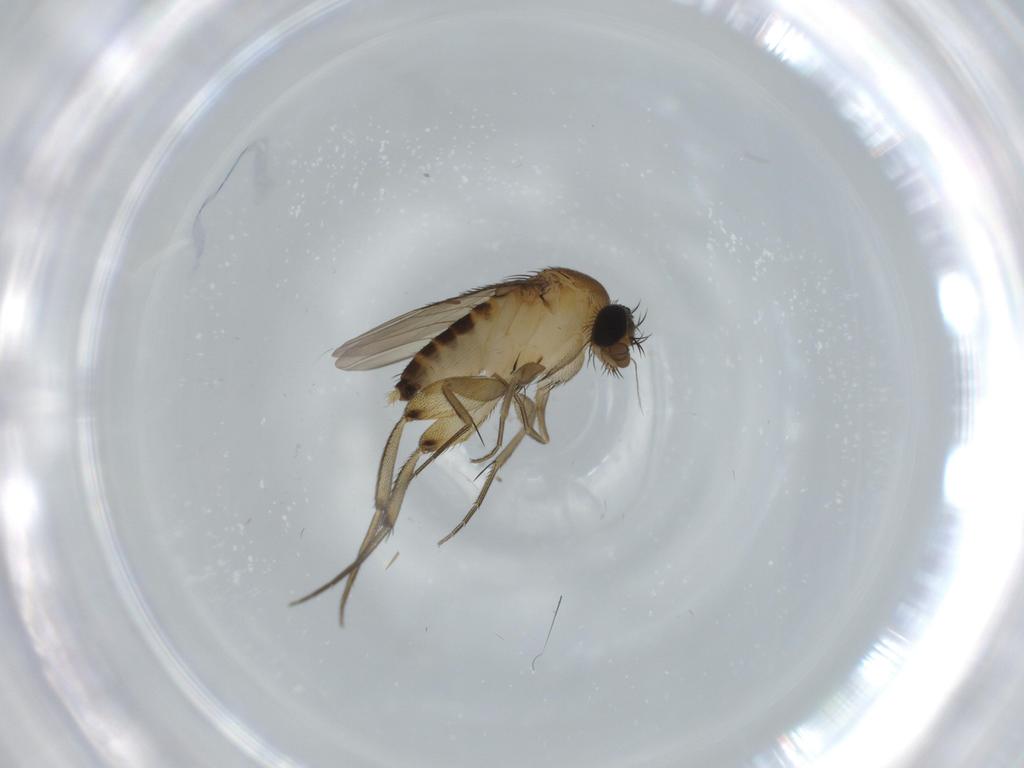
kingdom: Animalia
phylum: Arthropoda
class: Insecta
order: Diptera
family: Phoridae
